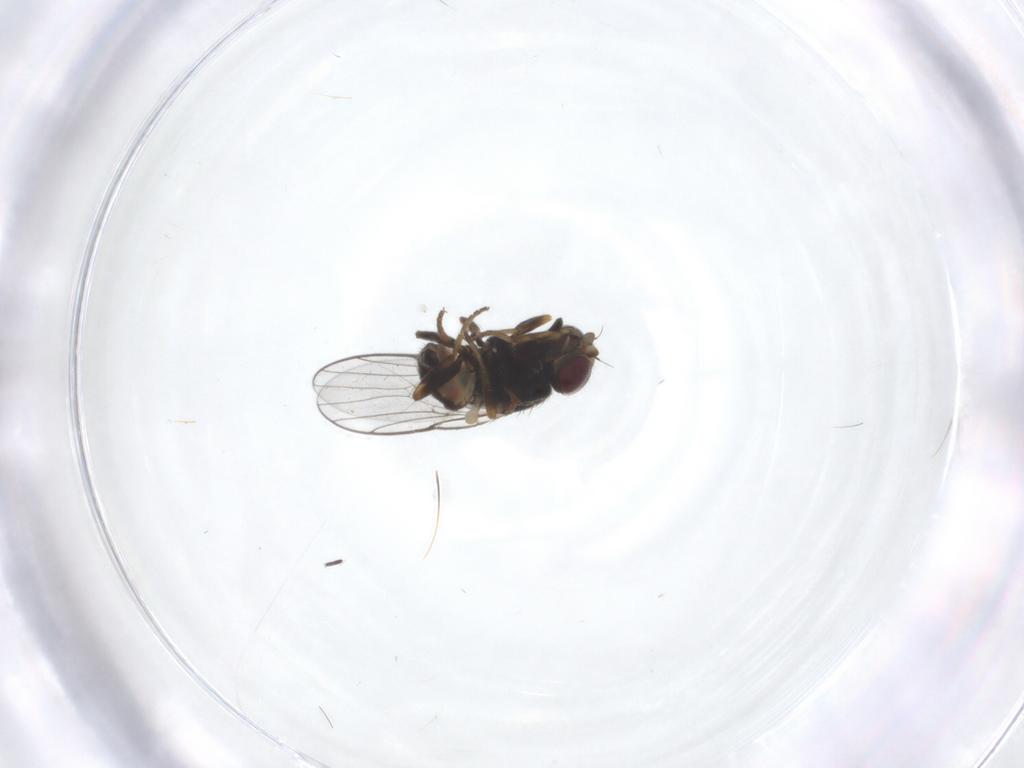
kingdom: Animalia
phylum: Arthropoda
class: Insecta
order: Diptera
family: Chloropidae
